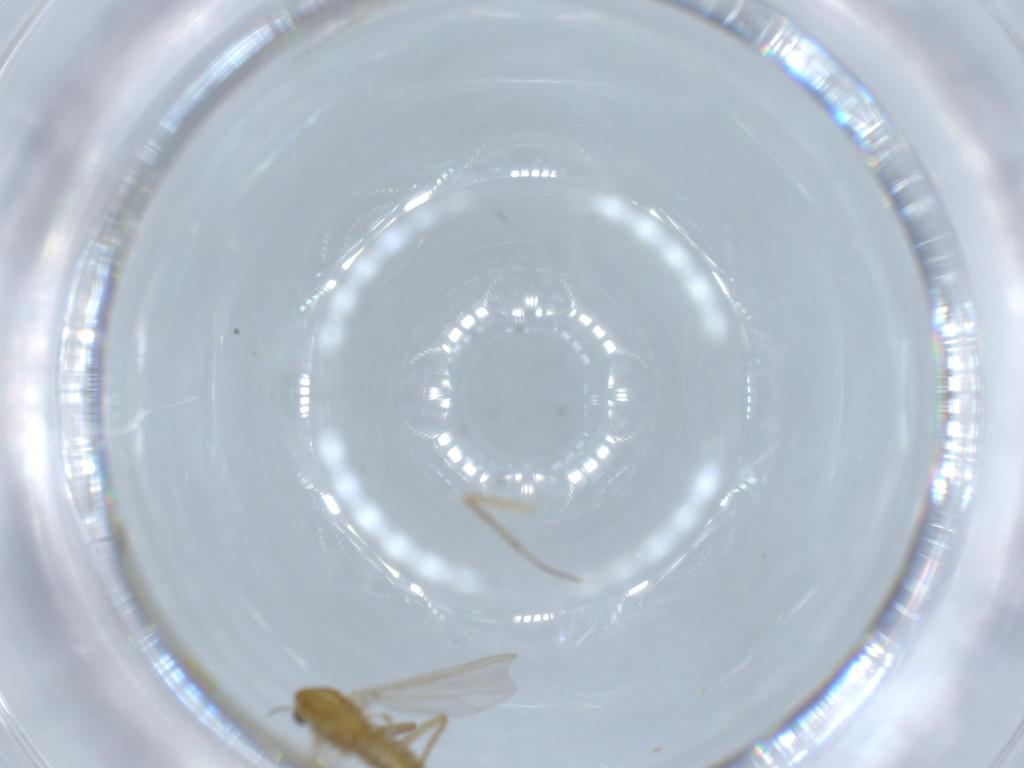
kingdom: Animalia
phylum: Arthropoda
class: Insecta
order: Diptera
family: Chironomidae
